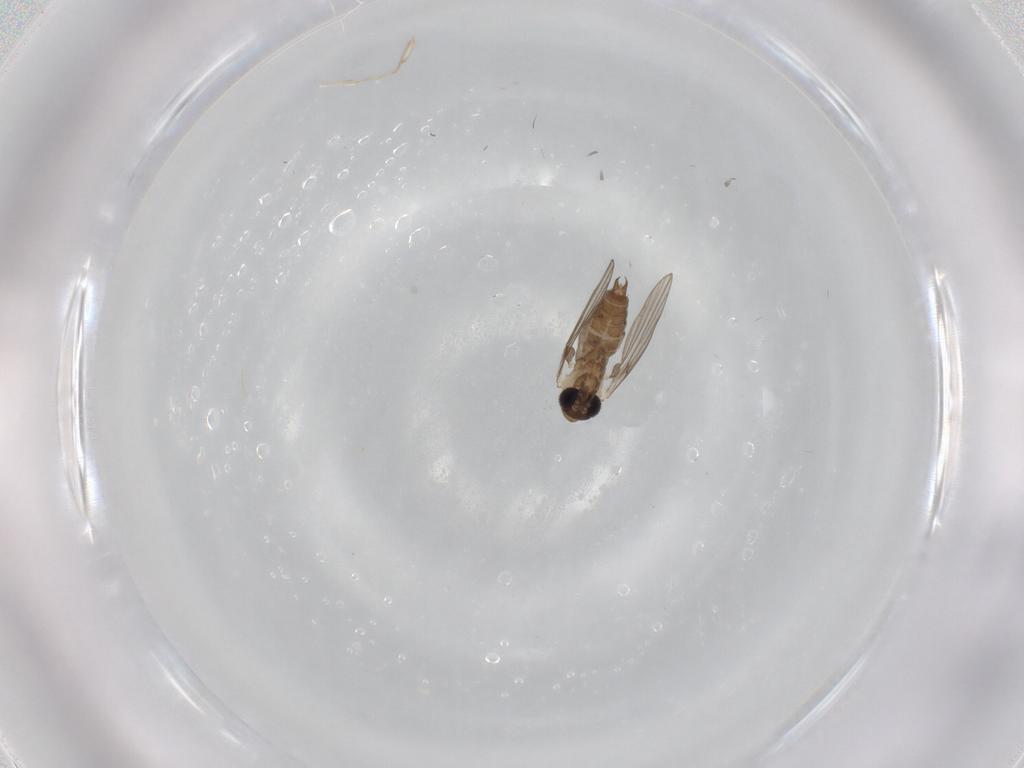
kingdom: Animalia
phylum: Arthropoda
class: Insecta
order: Diptera
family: Psychodidae
